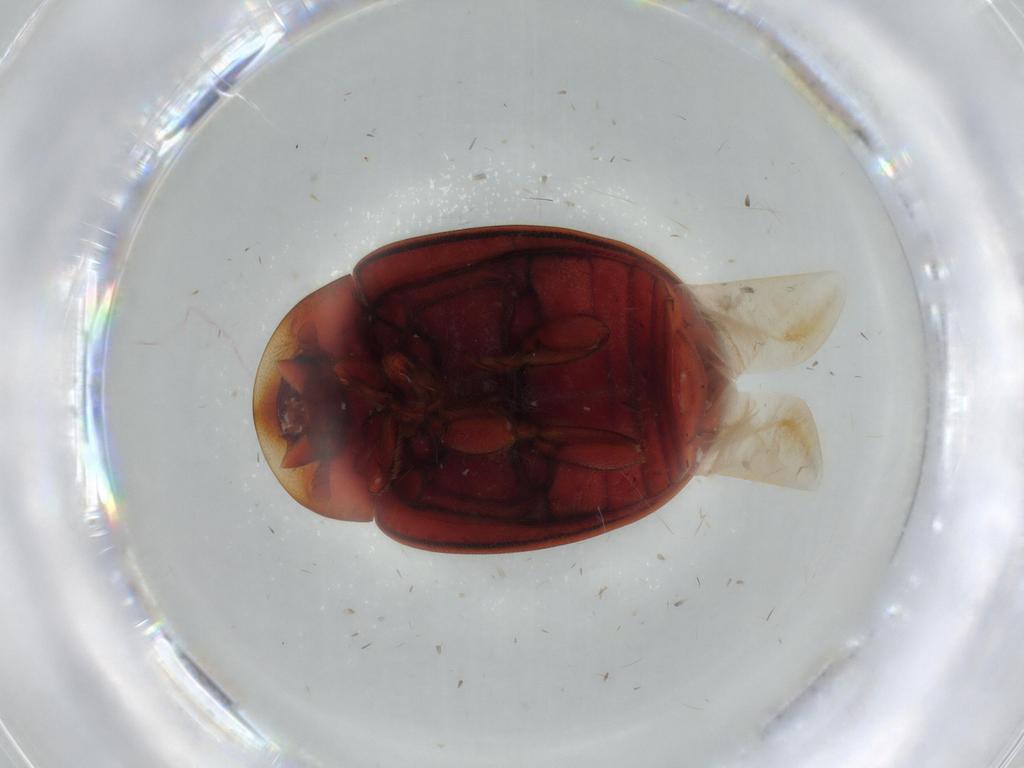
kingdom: Animalia
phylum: Arthropoda
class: Insecta
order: Coleoptera
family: Coccinellidae
